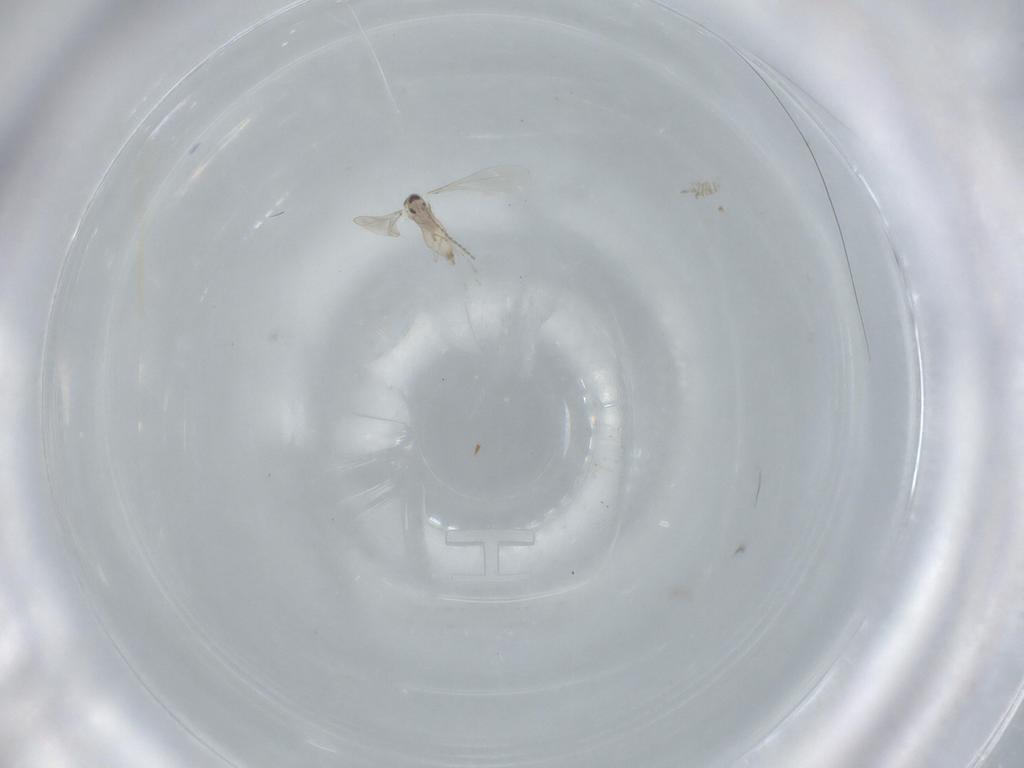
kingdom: Animalia
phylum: Arthropoda
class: Insecta
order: Diptera
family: Phoridae
